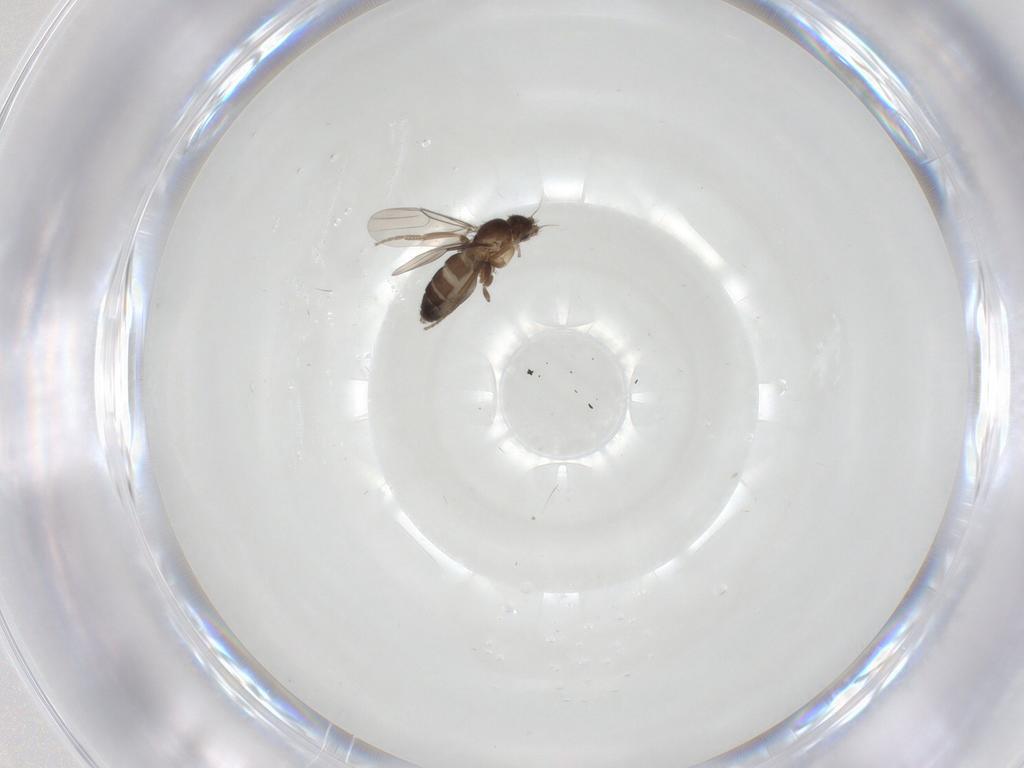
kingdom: Animalia
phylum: Arthropoda
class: Insecta
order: Diptera
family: Phoridae
